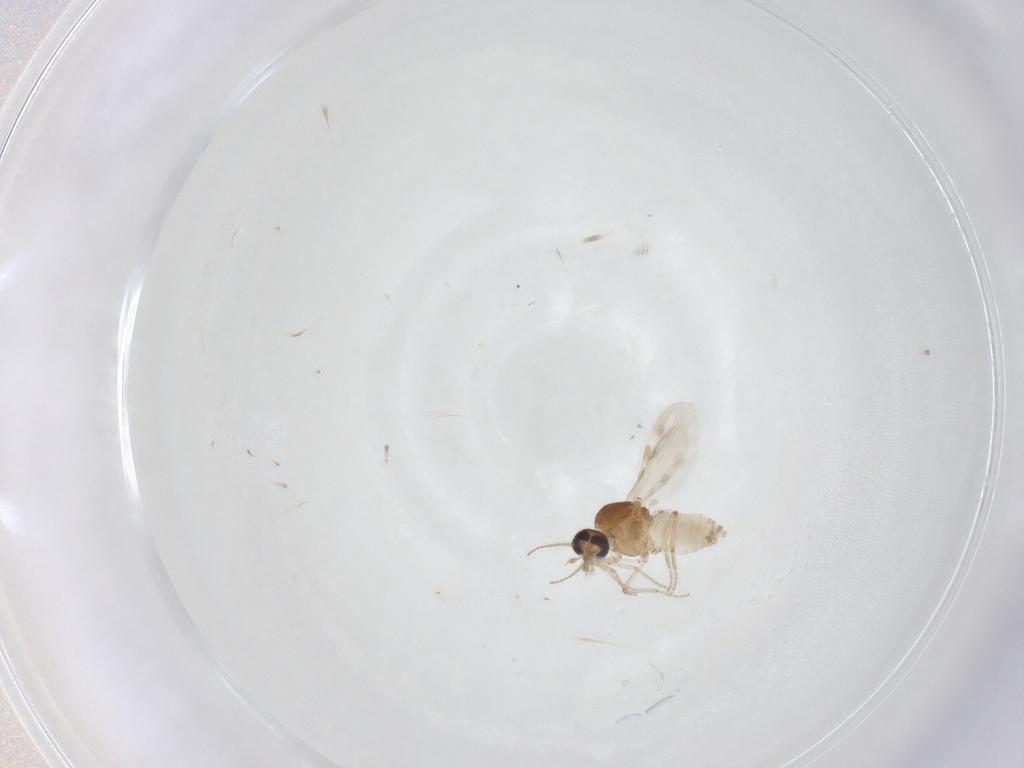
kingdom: Animalia
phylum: Arthropoda
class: Insecta
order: Diptera
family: Ceratopogonidae
